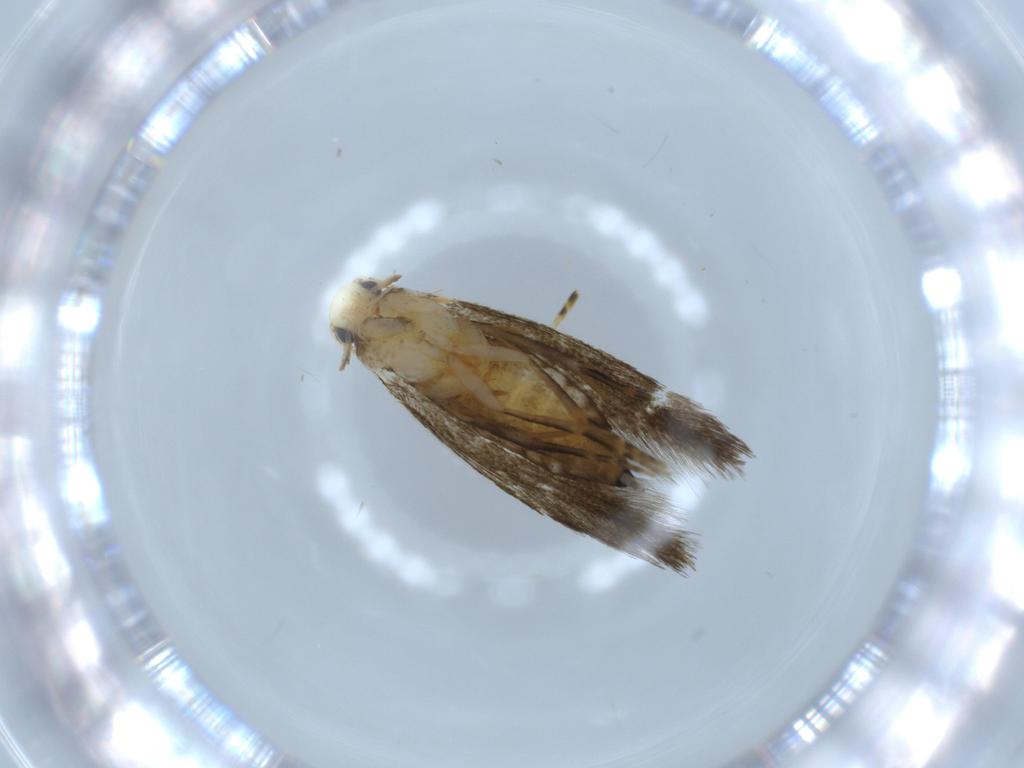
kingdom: Animalia
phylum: Arthropoda
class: Insecta
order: Lepidoptera
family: Tineidae
